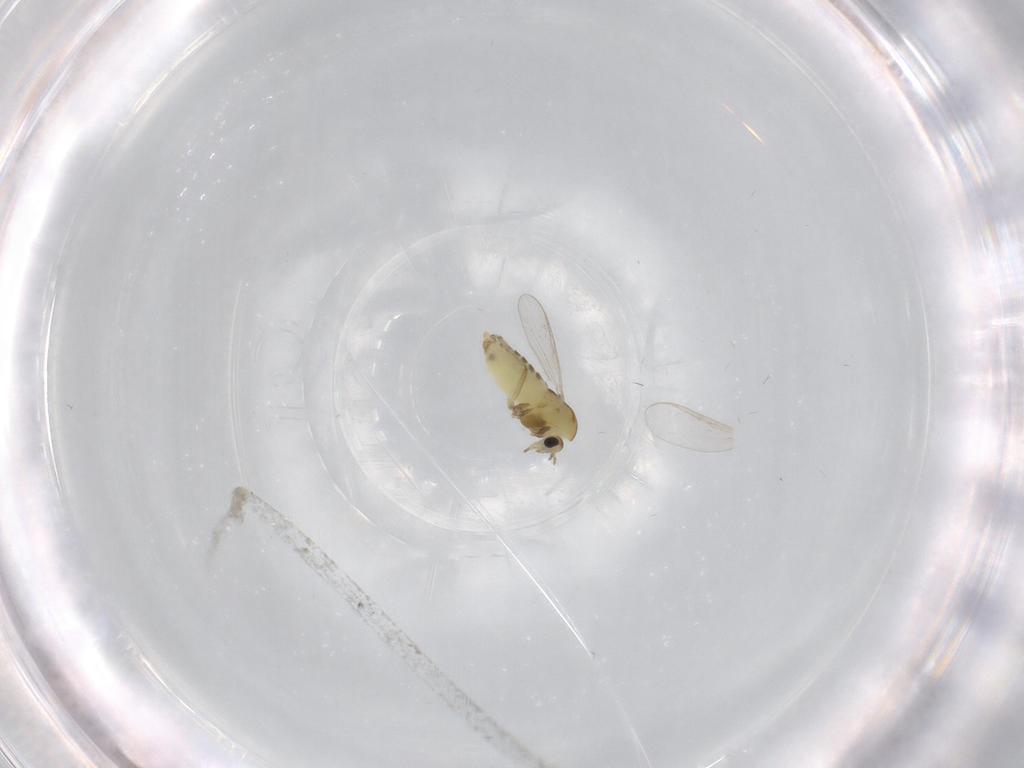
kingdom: Animalia
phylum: Arthropoda
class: Insecta
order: Diptera
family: Chironomidae
